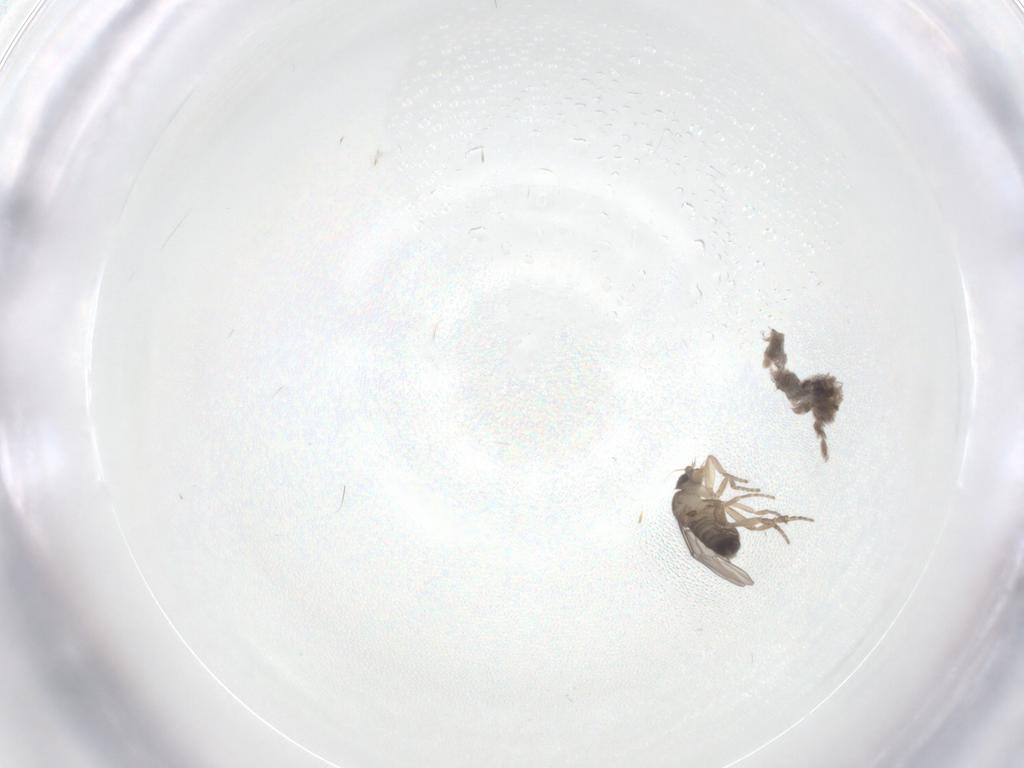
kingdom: Animalia
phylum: Arthropoda
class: Insecta
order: Diptera
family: Phoridae
